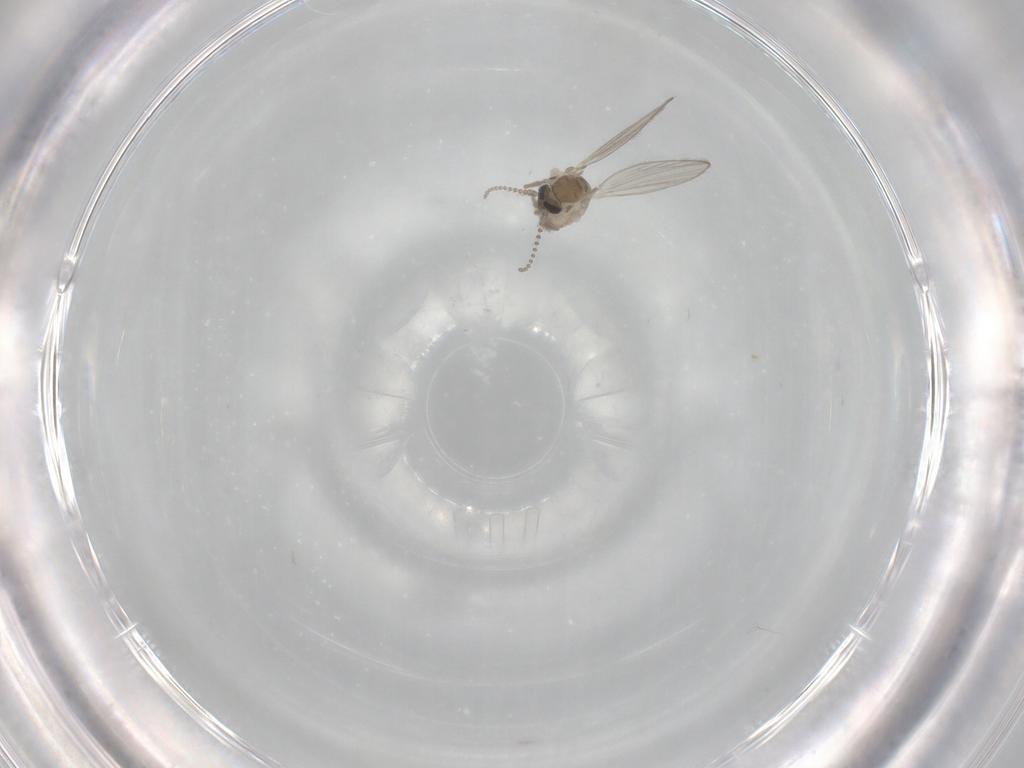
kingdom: Animalia
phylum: Arthropoda
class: Insecta
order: Diptera
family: Psychodidae
